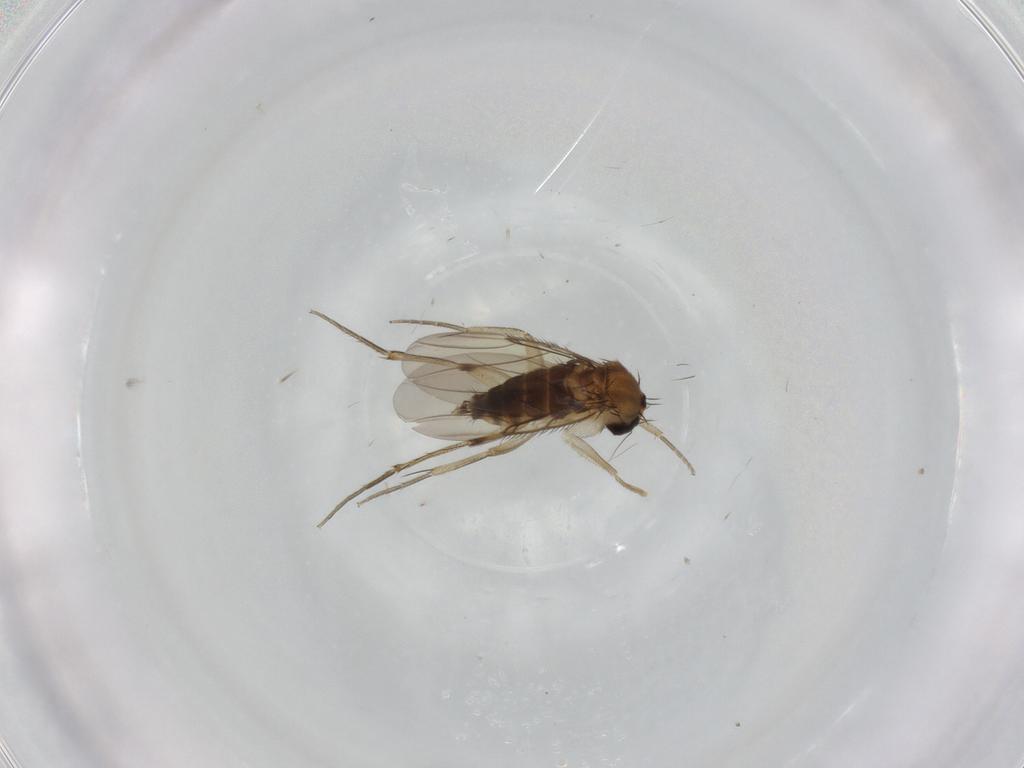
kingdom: Animalia
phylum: Arthropoda
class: Insecta
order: Diptera
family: Phoridae
